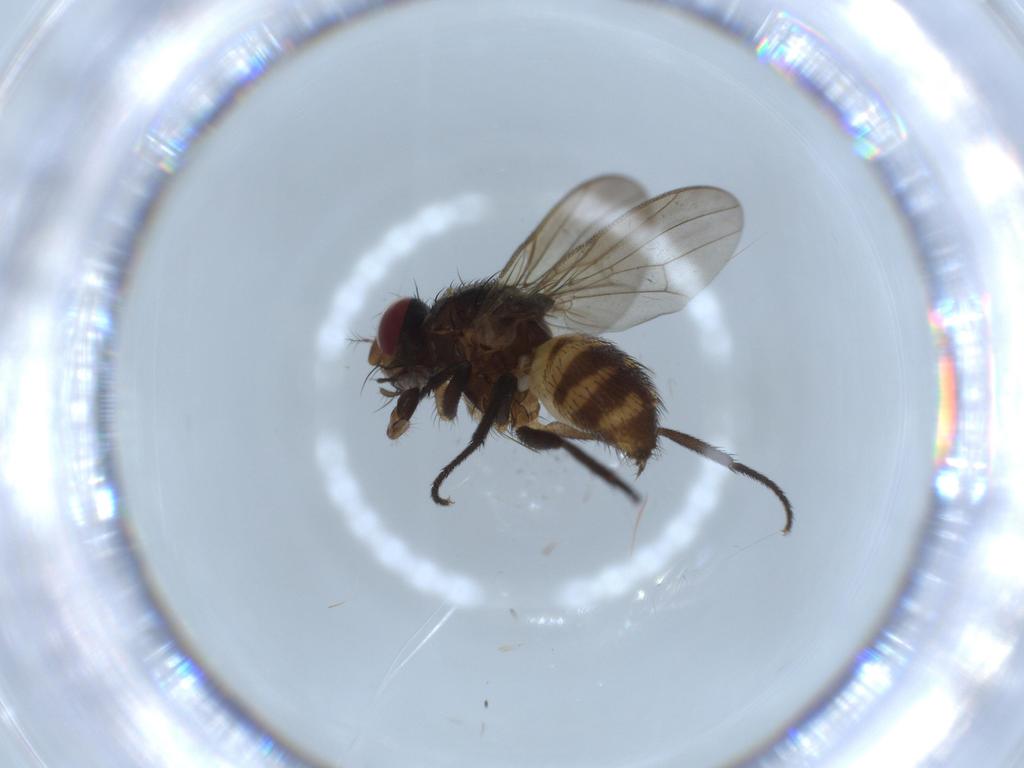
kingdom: Animalia
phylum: Arthropoda
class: Insecta
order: Diptera
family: Anthomyiidae
